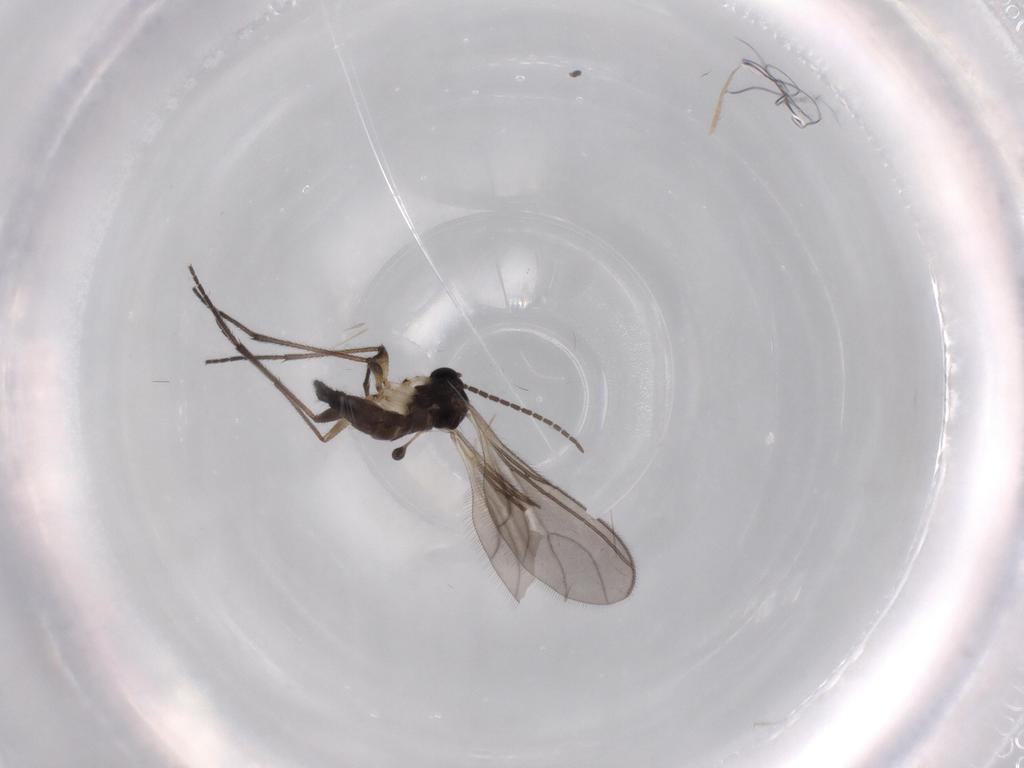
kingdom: Animalia
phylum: Arthropoda
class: Insecta
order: Diptera
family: Sciaridae
